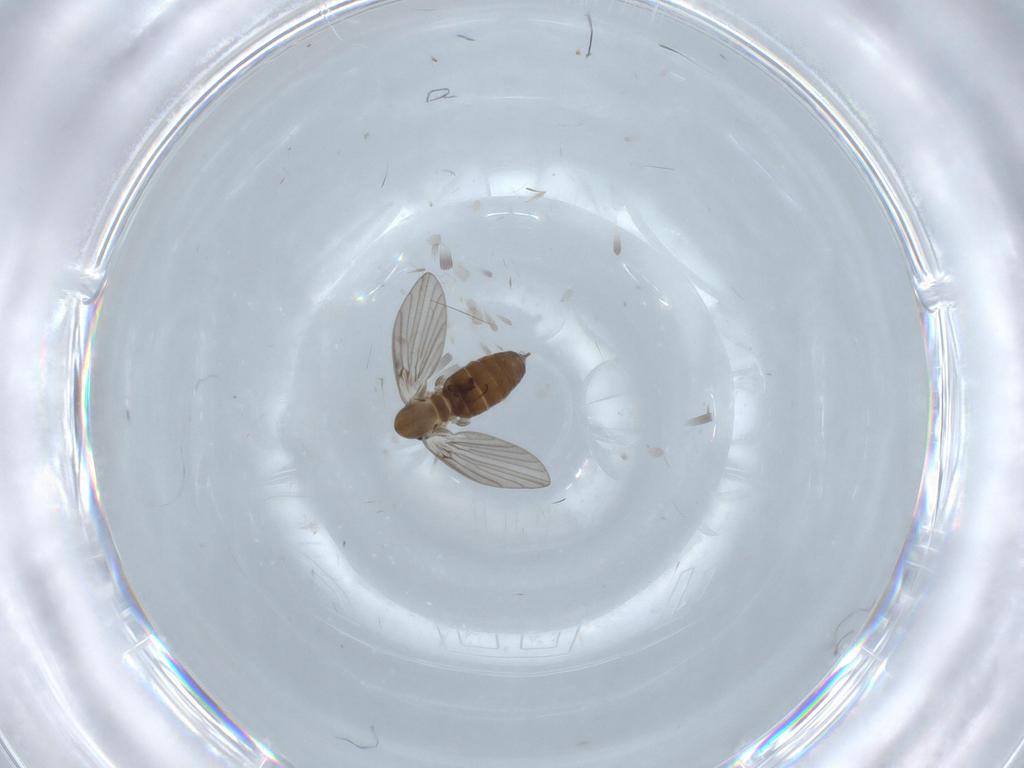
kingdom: Animalia
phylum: Arthropoda
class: Insecta
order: Diptera
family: Psychodidae
